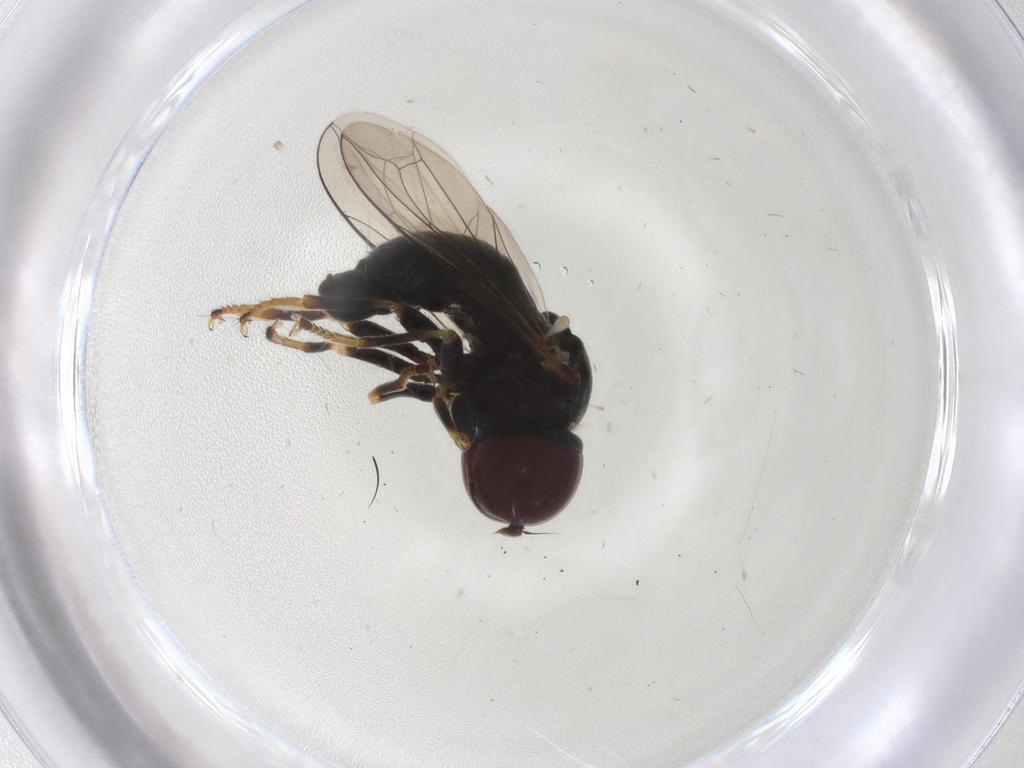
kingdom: Animalia
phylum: Arthropoda
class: Insecta
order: Diptera
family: Pipunculidae
